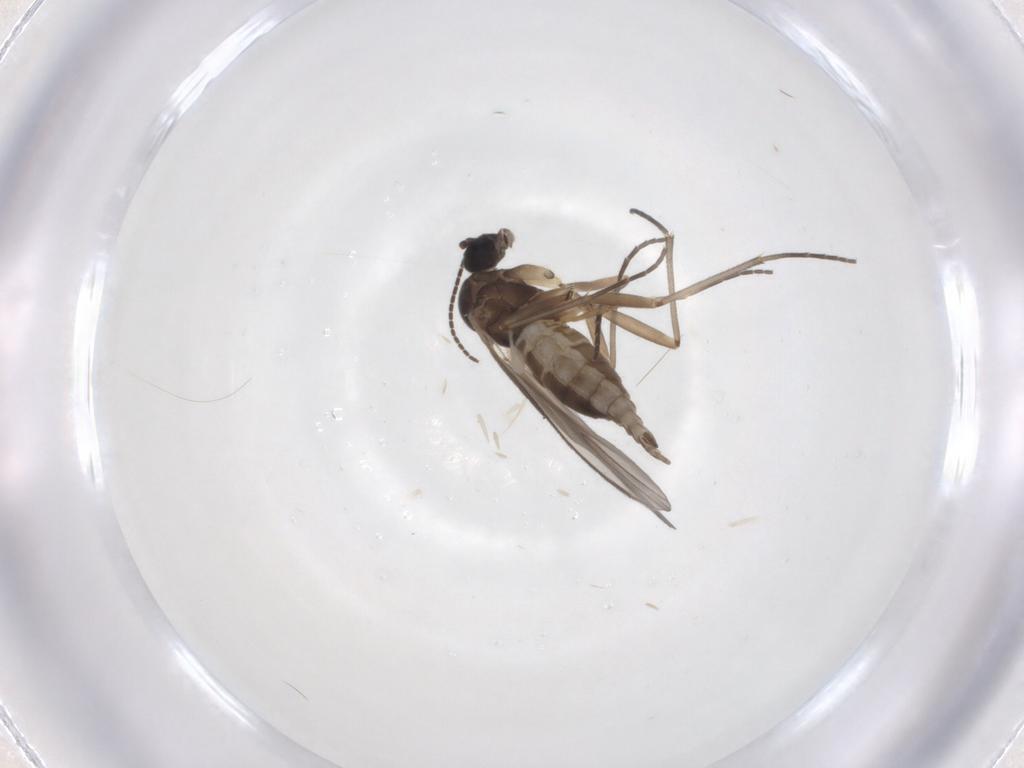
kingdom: Animalia
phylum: Arthropoda
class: Insecta
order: Diptera
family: Sciaridae
